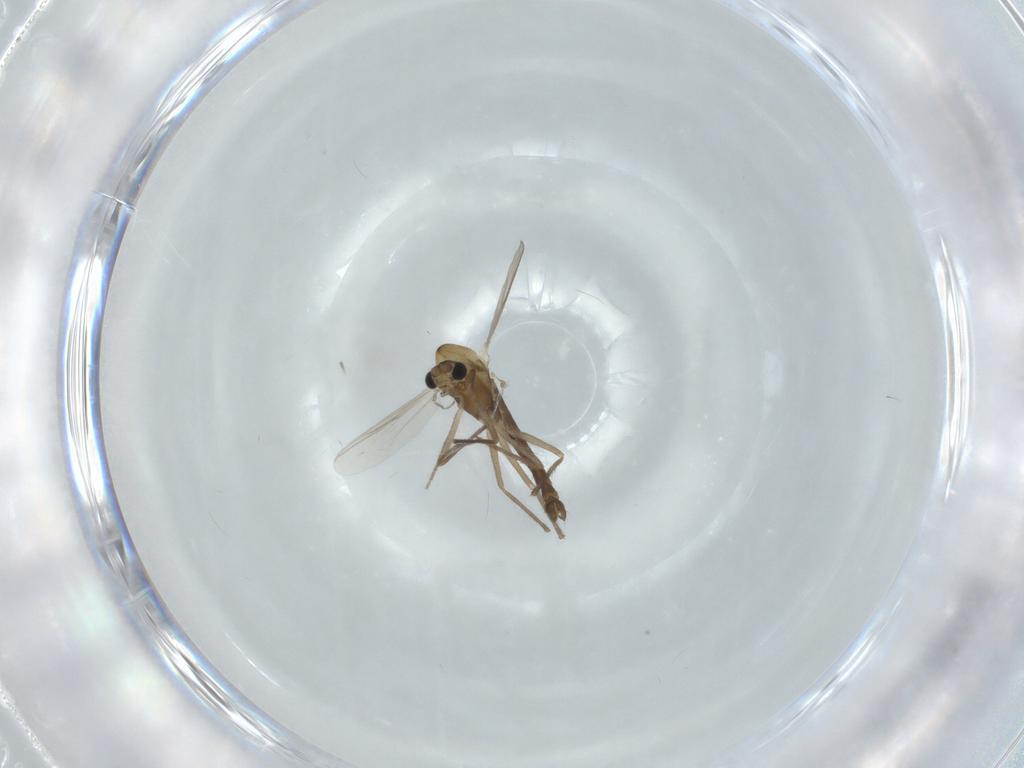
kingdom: Animalia
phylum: Arthropoda
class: Insecta
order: Diptera
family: Chironomidae
